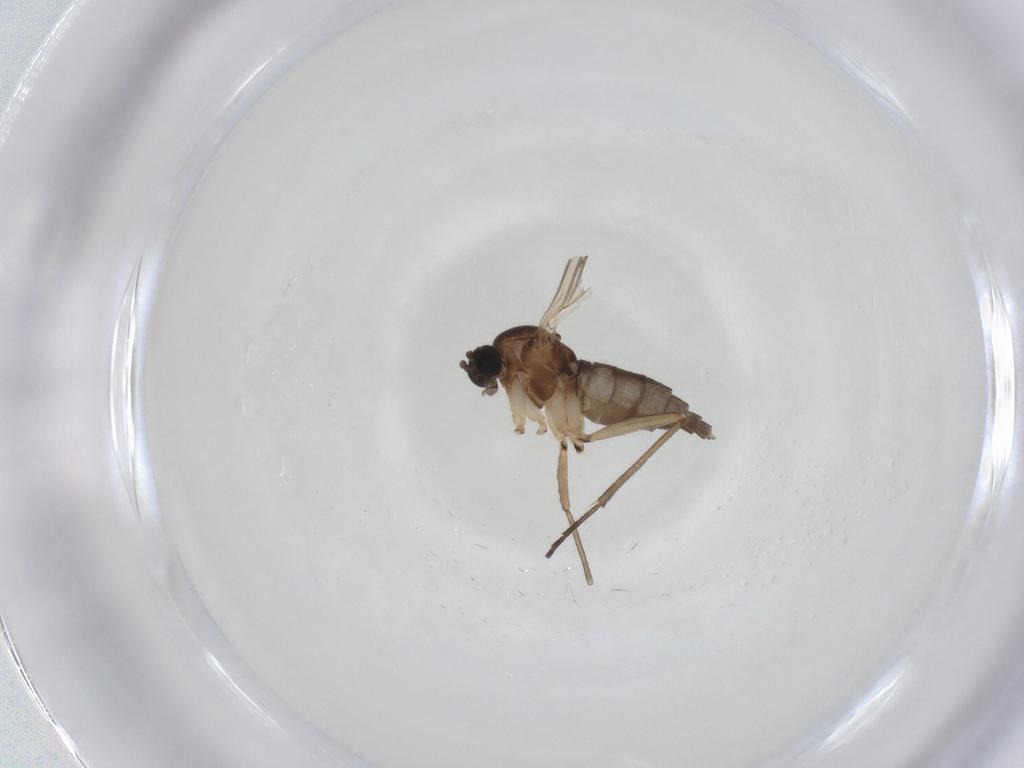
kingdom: Animalia
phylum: Arthropoda
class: Insecta
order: Diptera
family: Sciaridae
